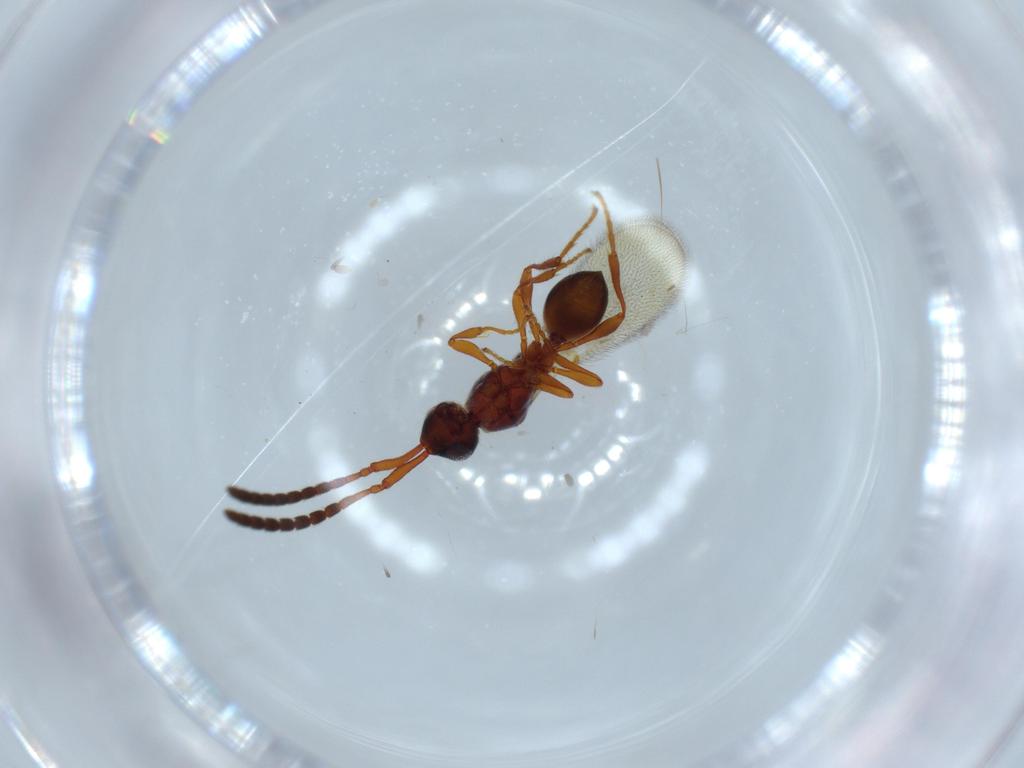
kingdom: Animalia
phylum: Arthropoda
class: Insecta
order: Hymenoptera
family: Diapriidae
